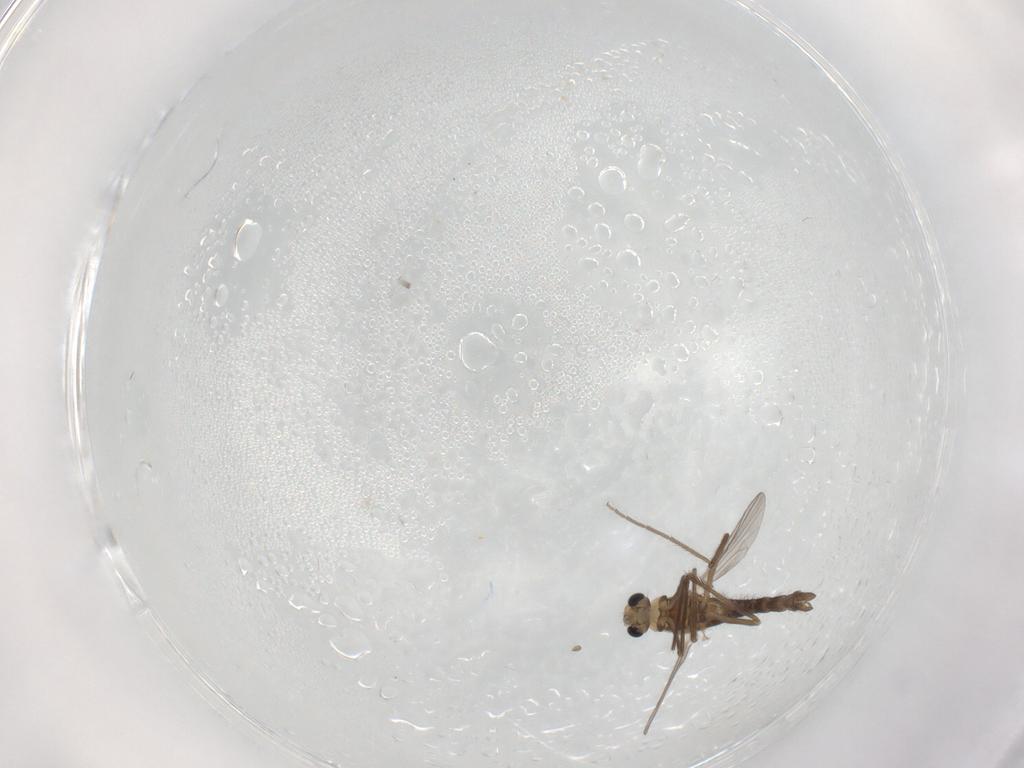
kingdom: Animalia
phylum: Arthropoda
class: Insecta
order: Diptera
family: Chironomidae
